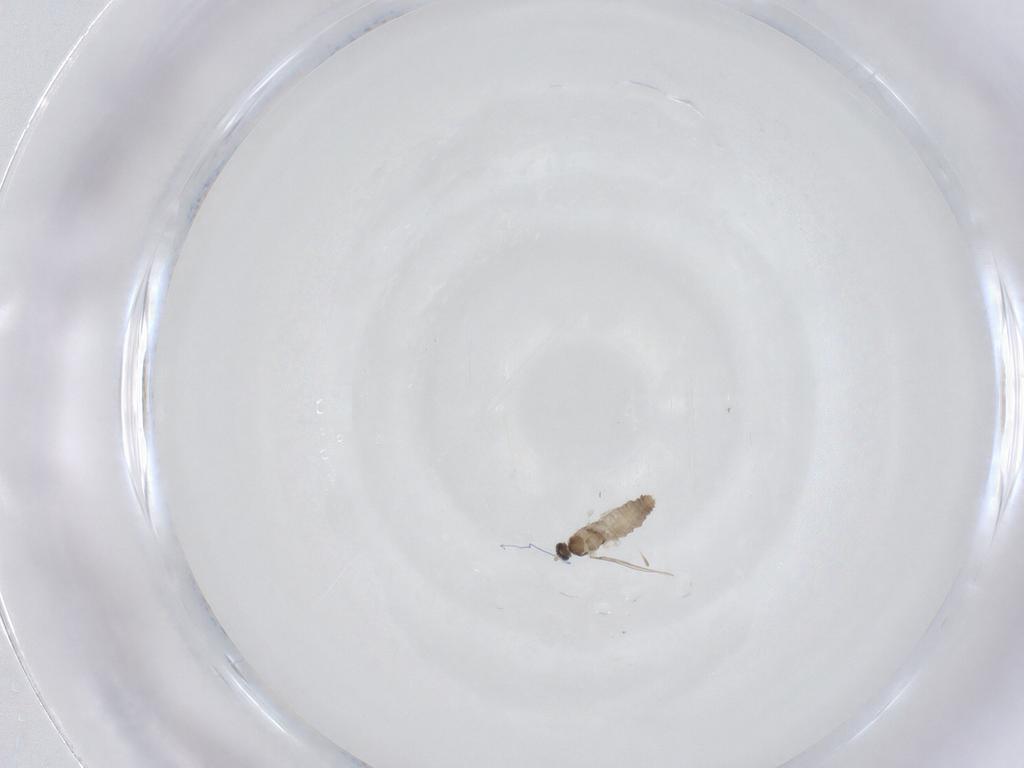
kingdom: Animalia
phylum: Arthropoda
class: Insecta
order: Diptera
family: Cecidomyiidae
